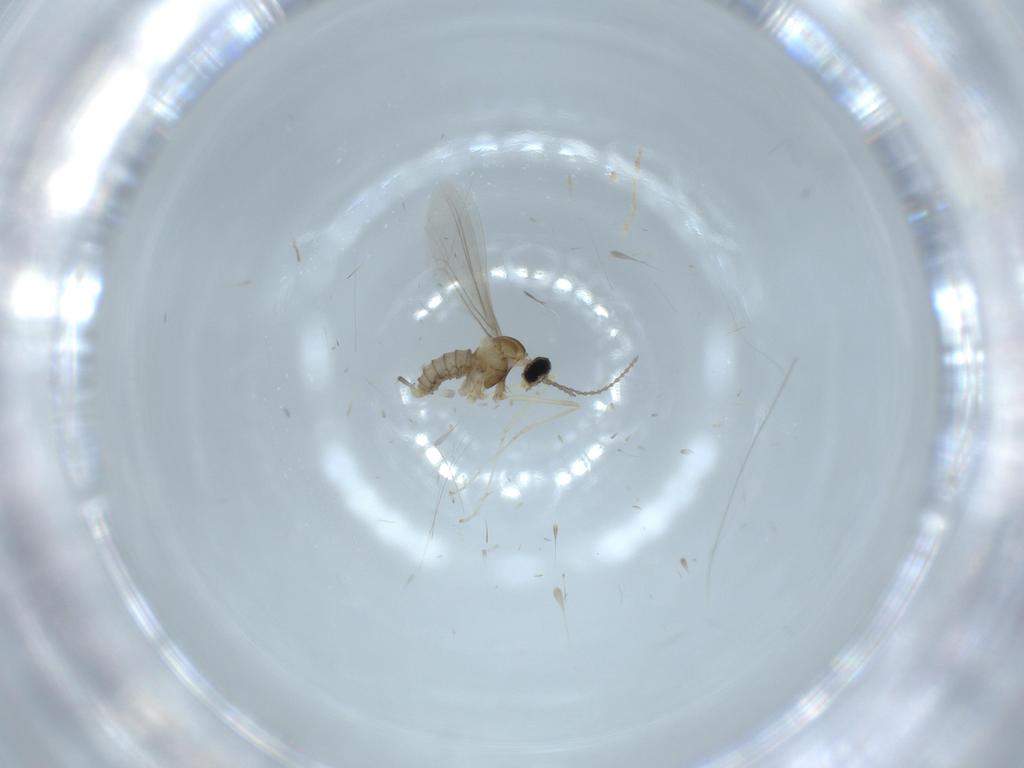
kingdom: Animalia
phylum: Arthropoda
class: Insecta
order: Diptera
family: Cecidomyiidae
